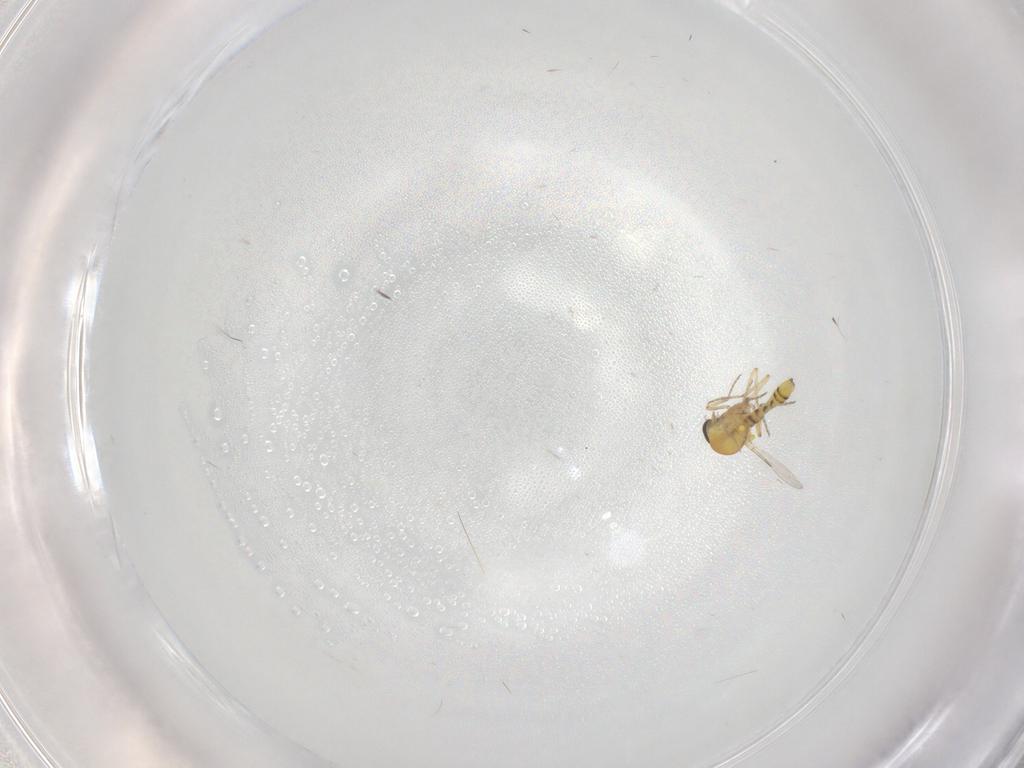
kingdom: Animalia
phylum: Arthropoda
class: Insecta
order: Diptera
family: Ceratopogonidae
